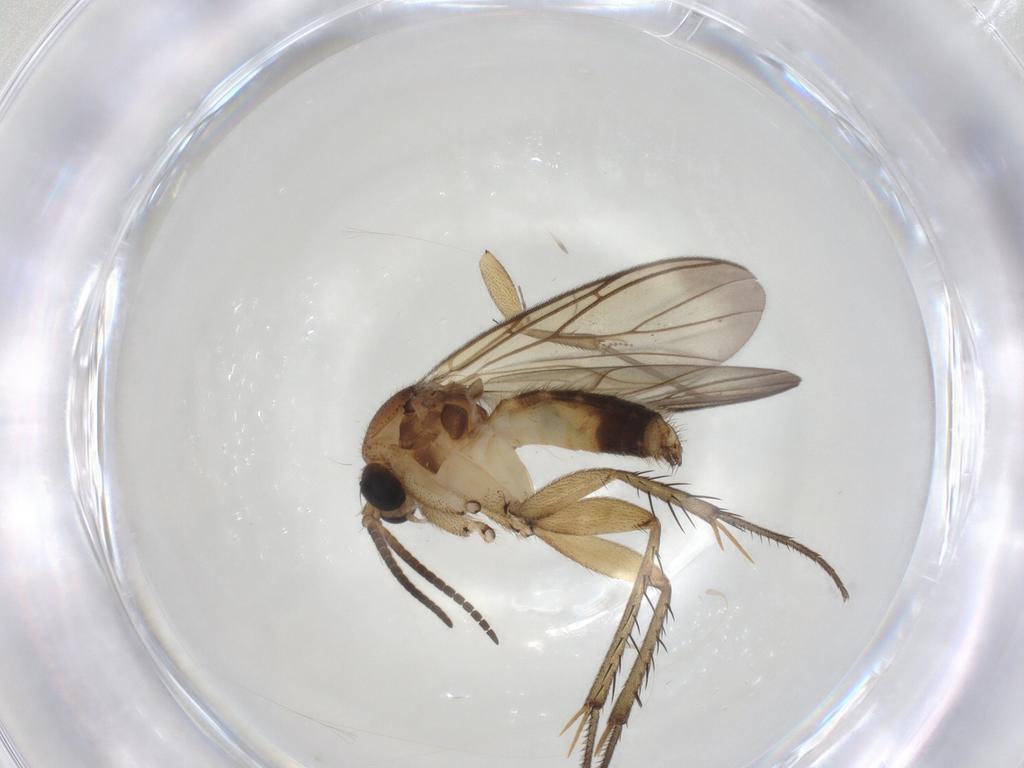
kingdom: Animalia
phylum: Arthropoda
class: Insecta
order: Diptera
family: Mycetophilidae
